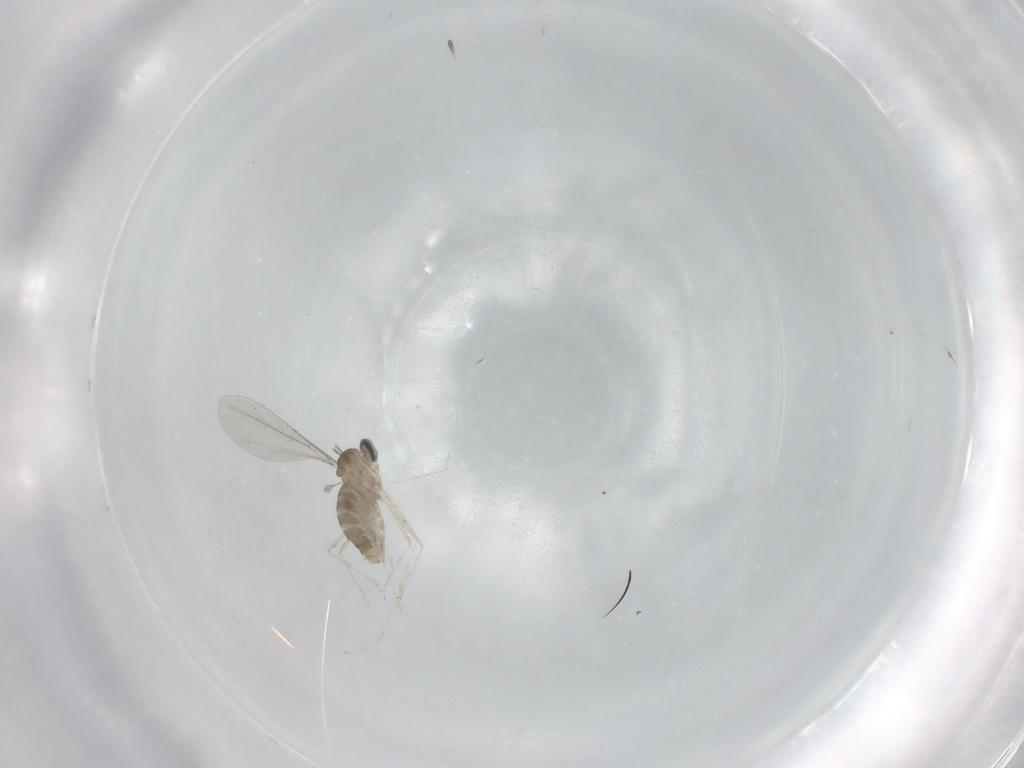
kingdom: Animalia
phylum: Arthropoda
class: Insecta
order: Diptera
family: Cecidomyiidae
